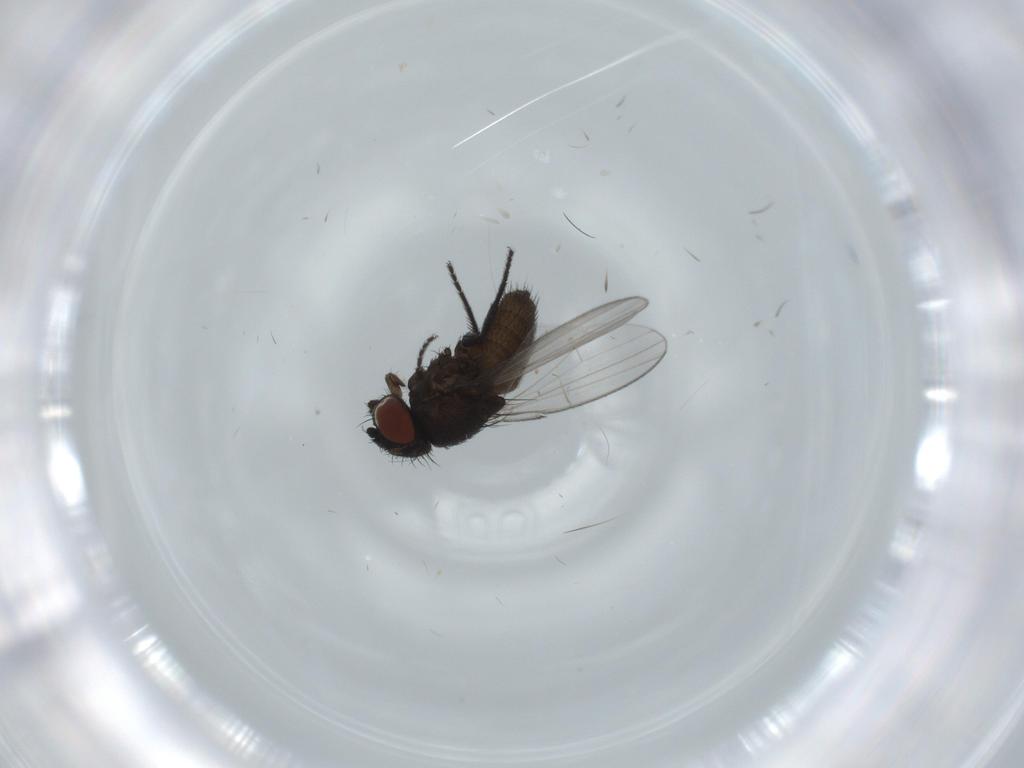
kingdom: Animalia
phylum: Arthropoda
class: Insecta
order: Diptera
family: Milichiidae
